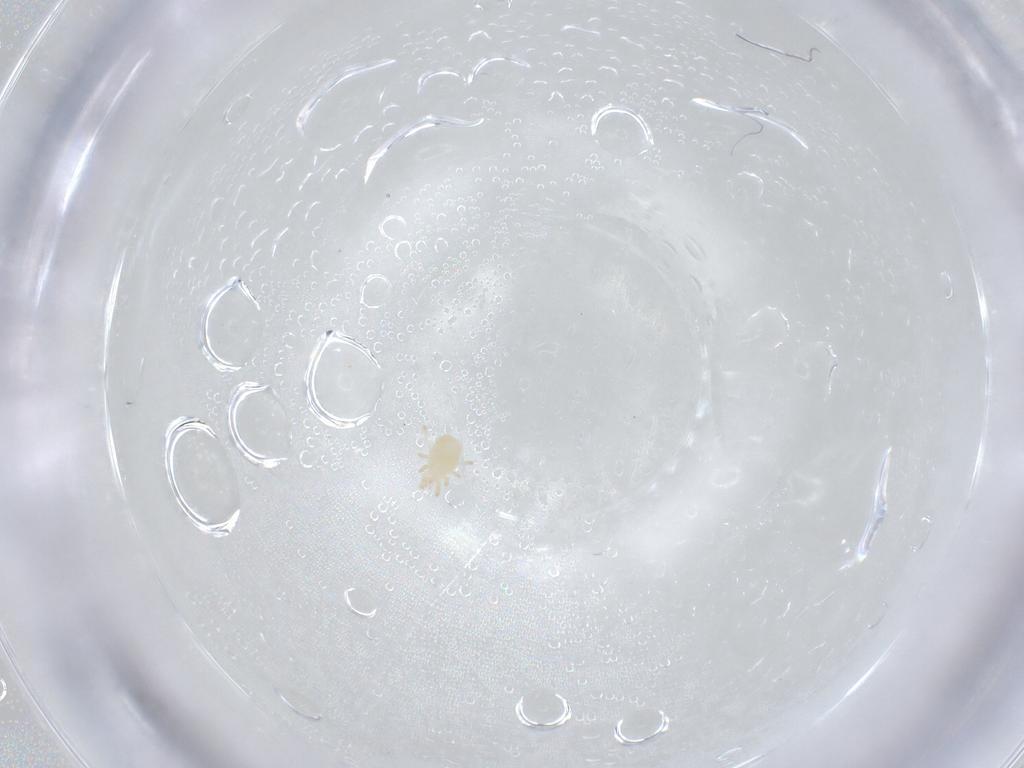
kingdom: Animalia
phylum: Arthropoda
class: Arachnida
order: Mesostigmata
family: Phytoseiidae
